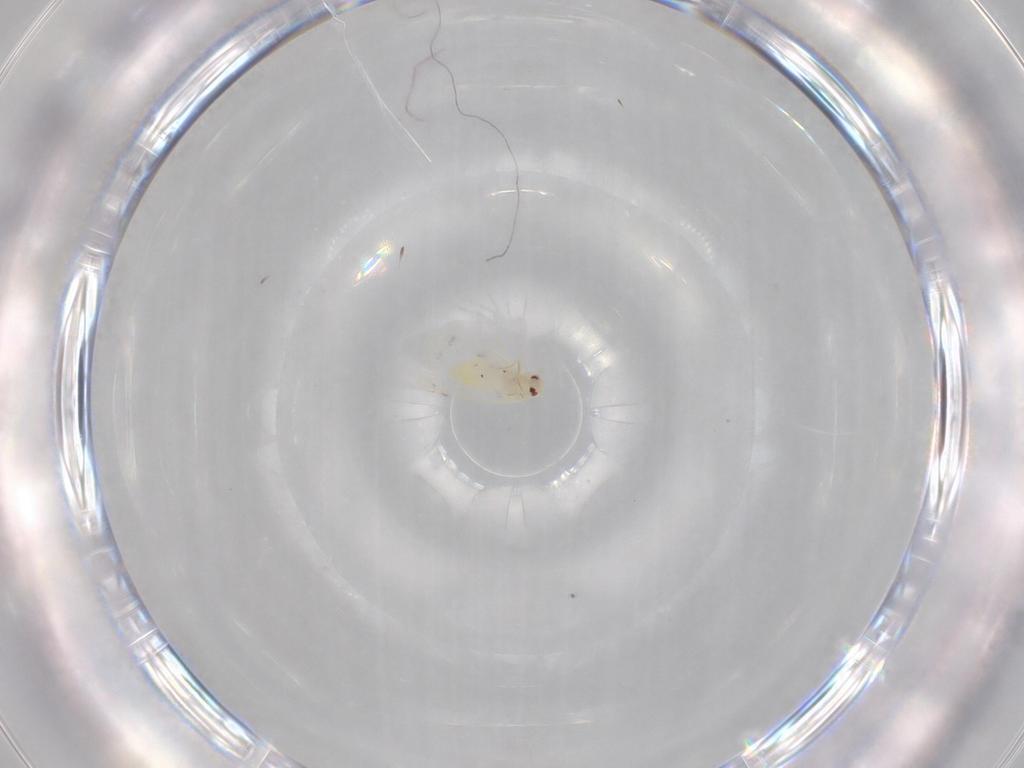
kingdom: Animalia
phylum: Arthropoda
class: Insecta
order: Hemiptera
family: Aleyrodidae
